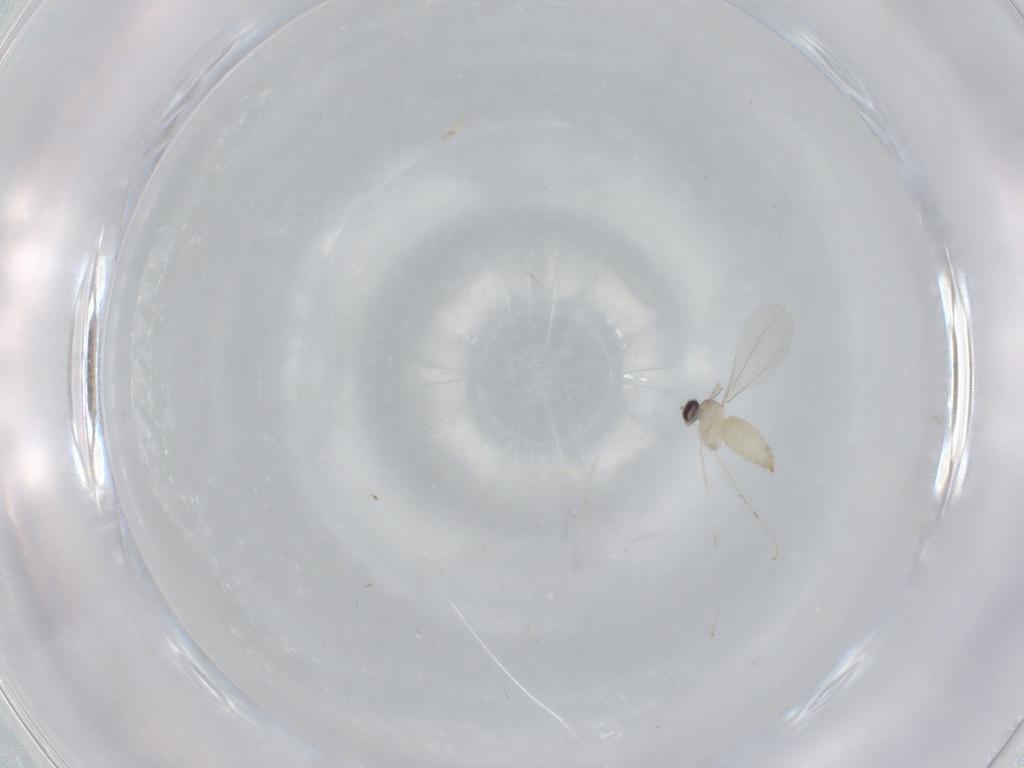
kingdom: Animalia
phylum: Arthropoda
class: Insecta
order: Diptera
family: Cecidomyiidae
